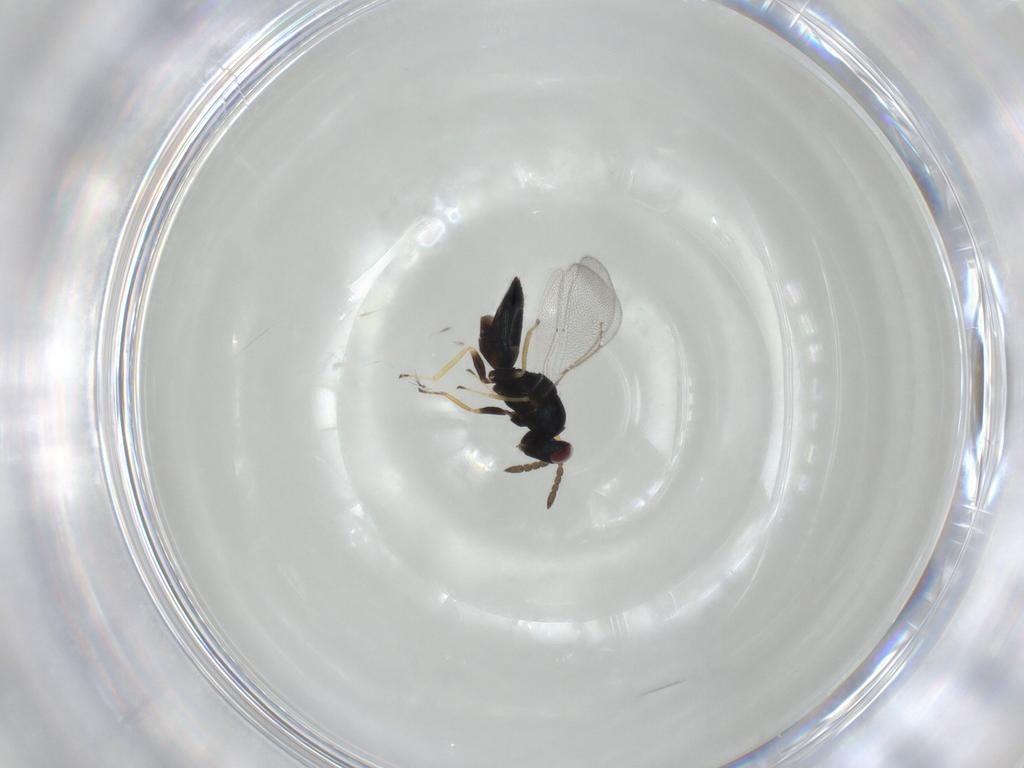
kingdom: Animalia
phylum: Arthropoda
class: Insecta
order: Hymenoptera
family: Eulophidae
